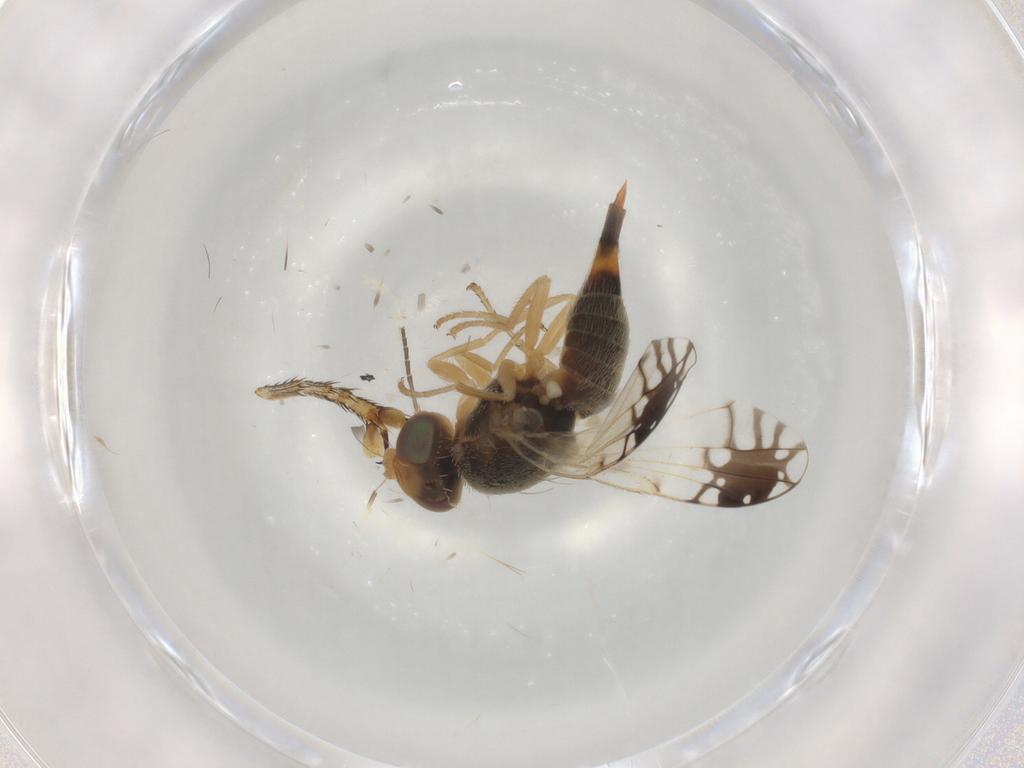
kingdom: Animalia
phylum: Arthropoda
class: Insecta
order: Diptera
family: Tephritidae
